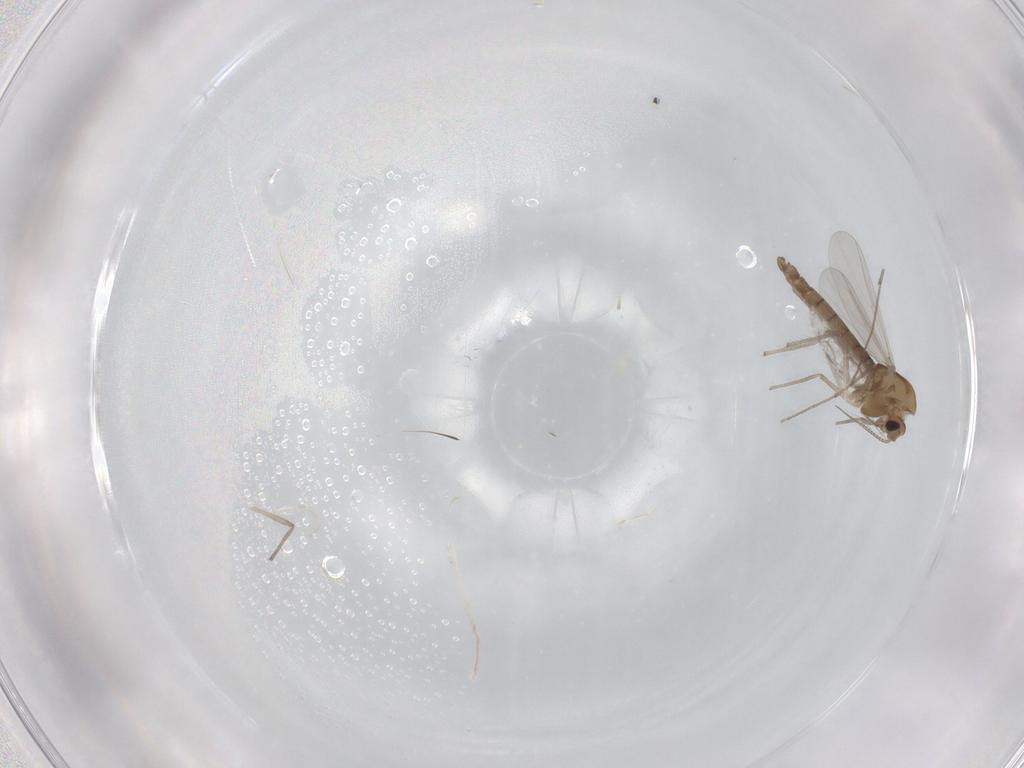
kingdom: Animalia
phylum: Arthropoda
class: Insecta
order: Diptera
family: Chironomidae
